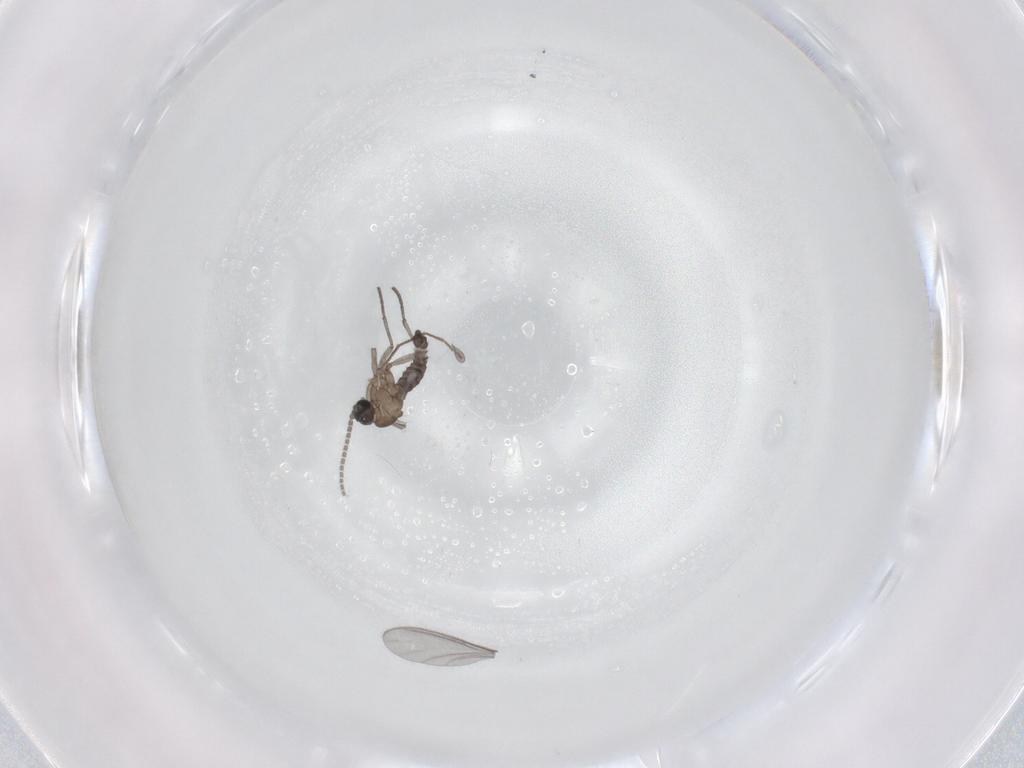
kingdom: Animalia
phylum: Arthropoda
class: Insecta
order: Diptera
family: Sciaridae
